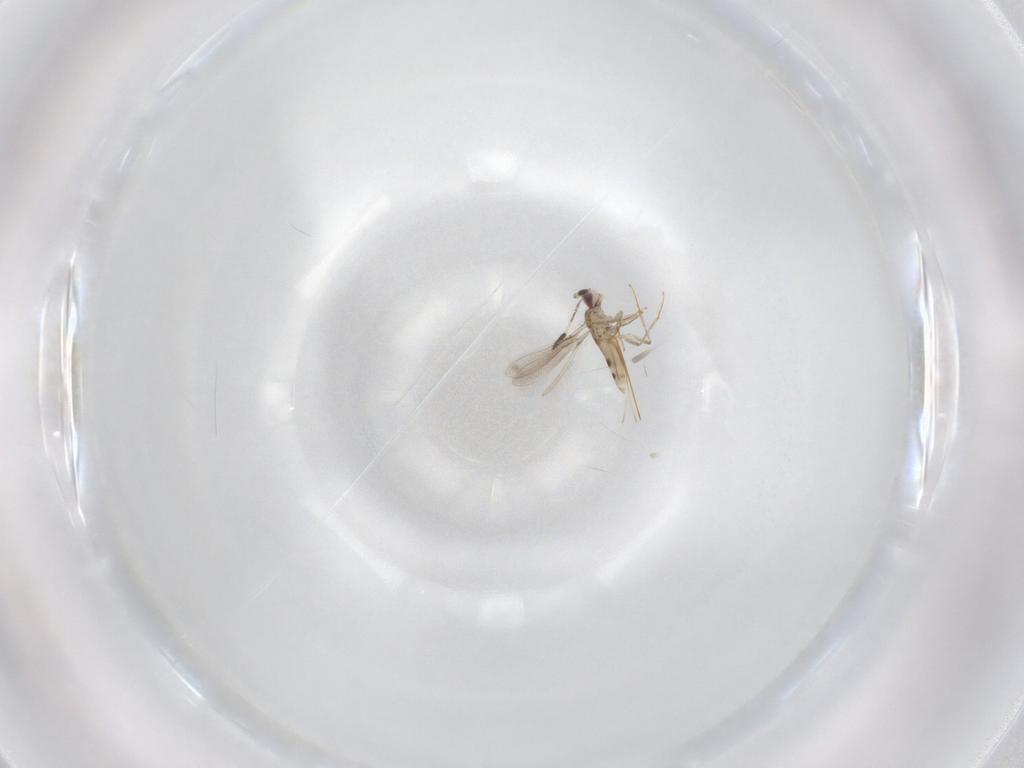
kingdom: Animalia
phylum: Arthropoda
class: Insecta
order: Hymenoptera
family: Mymaridae
